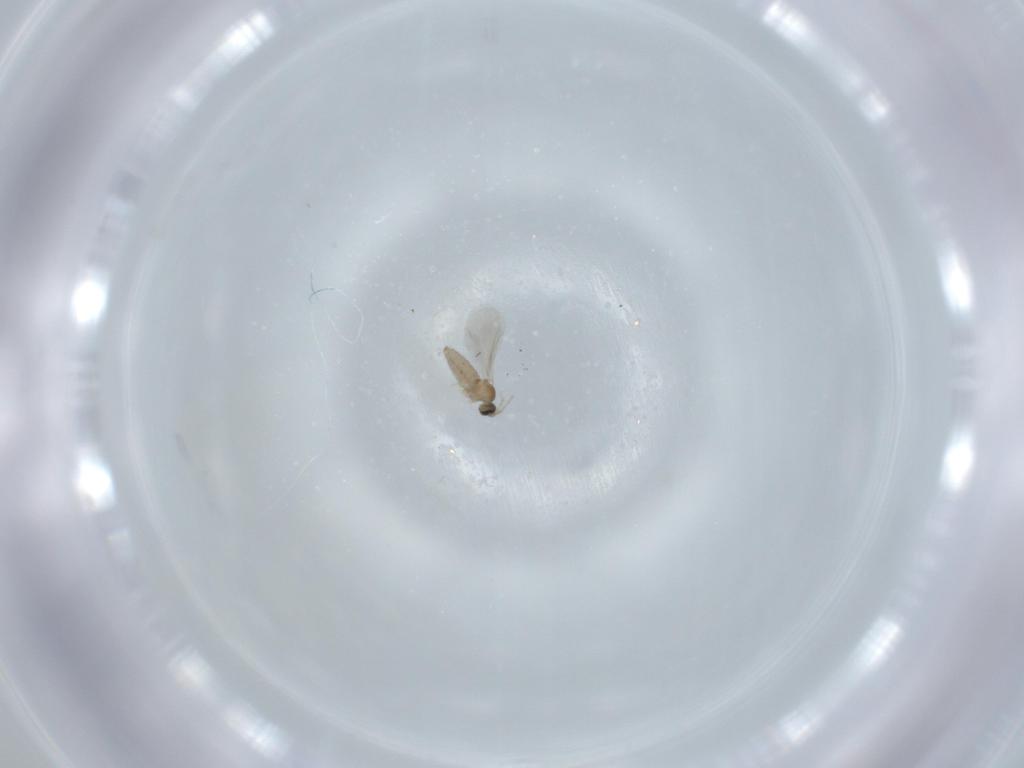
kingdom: Animalia
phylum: Arthropoda
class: Insecta
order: Diptera
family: Cecidomyiidae
